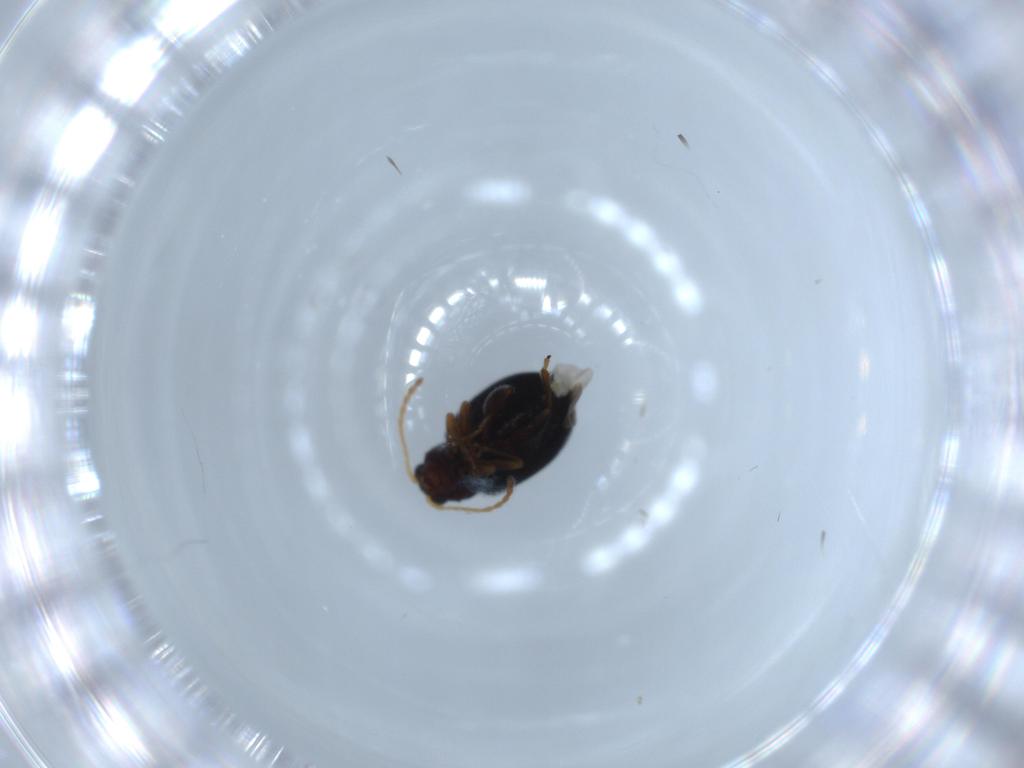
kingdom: Animalia
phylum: Arthropoda
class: Insecta
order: Coleoptera
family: Chrysomelidae
